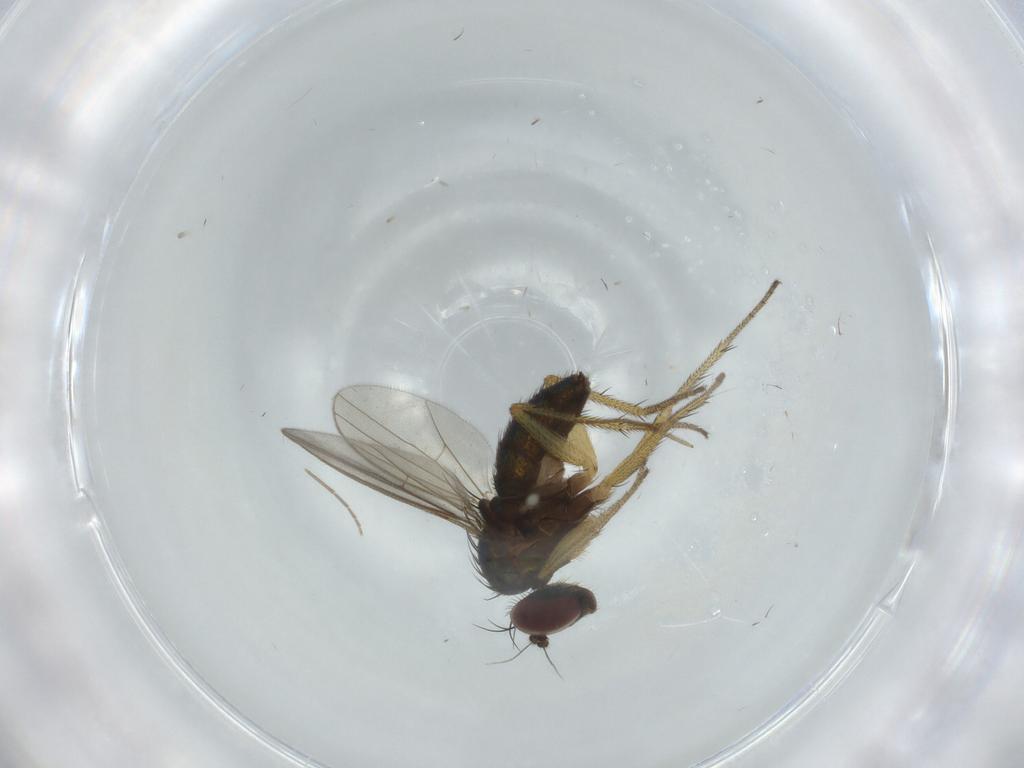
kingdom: Animalia
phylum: Arthropoda
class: Insecta
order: Diptera
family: Dolichopodidae
